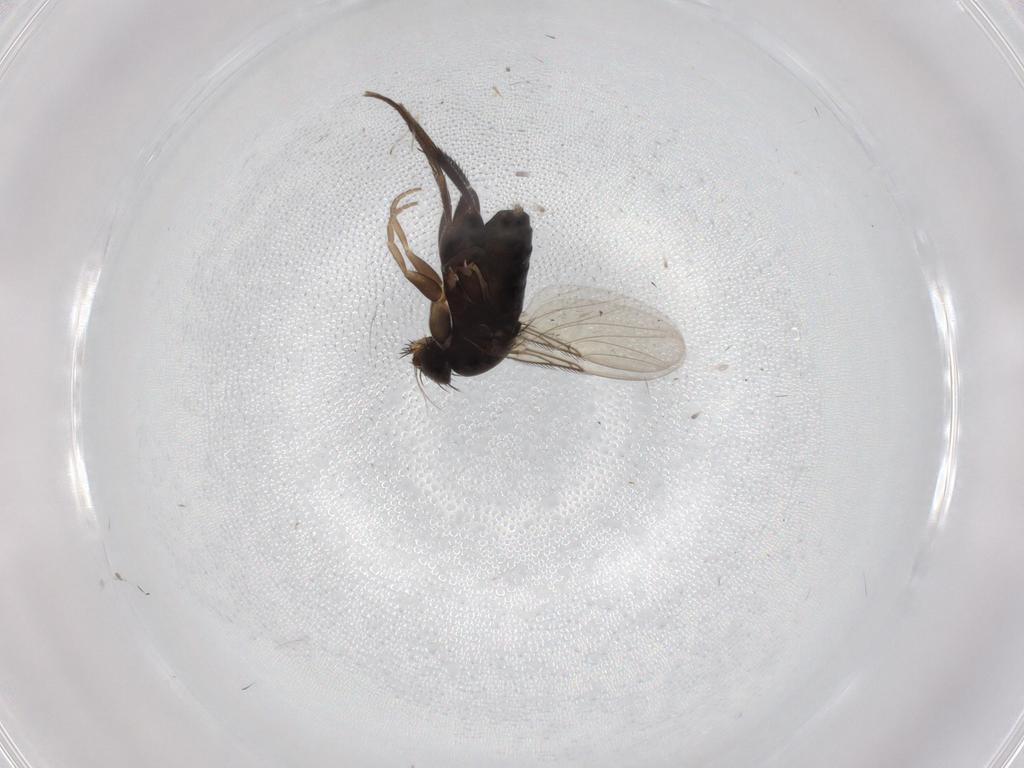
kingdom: Animalia
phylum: Arthropoda
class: Insecta
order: Diptera
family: Phoridae
